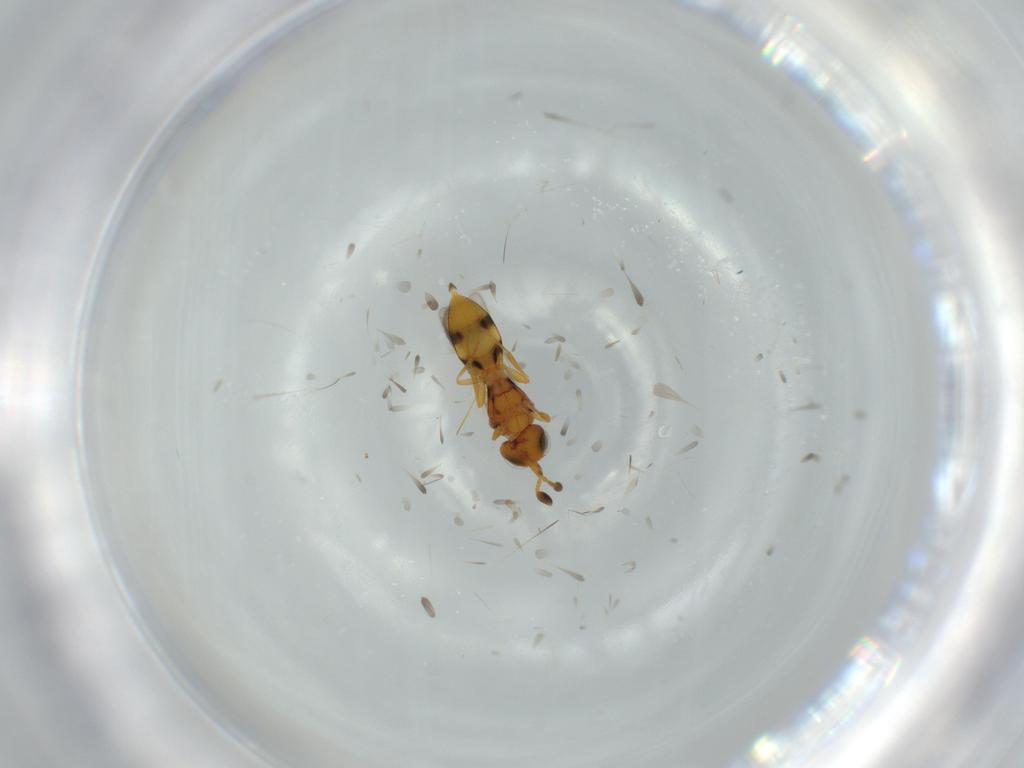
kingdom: Animalia
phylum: Arthropoda
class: Insecta
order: Hymenoptera
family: Scelionidae
